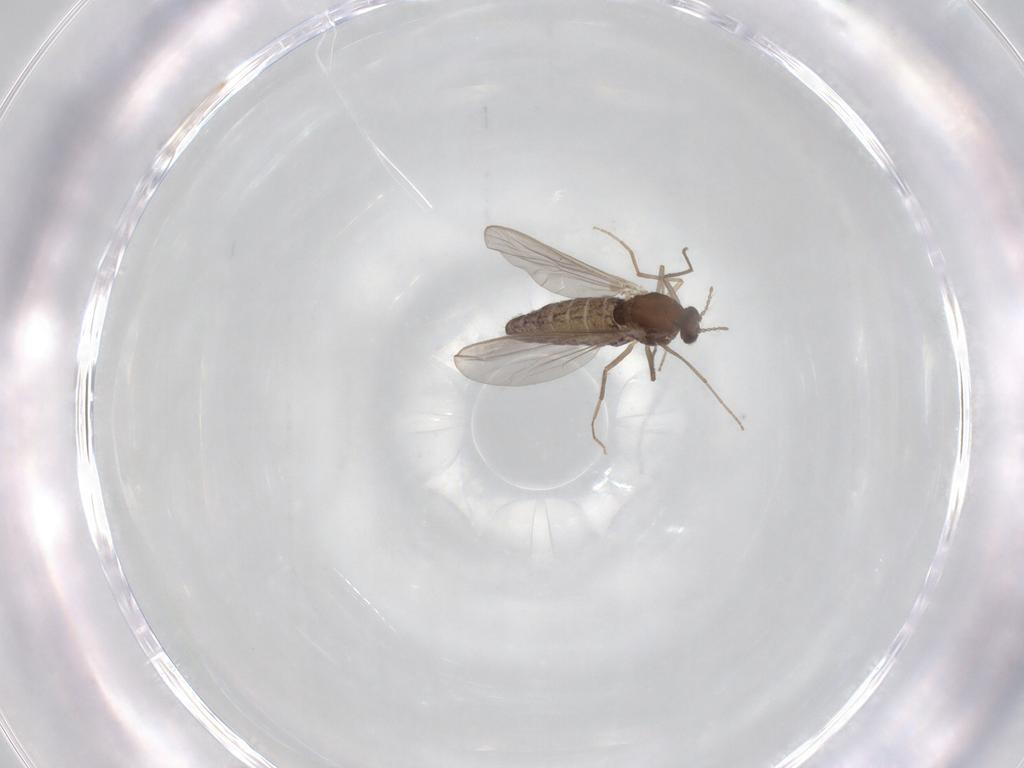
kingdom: Animalia
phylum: Arthropoda
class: Insecta
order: Diptera
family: Chironomidae
